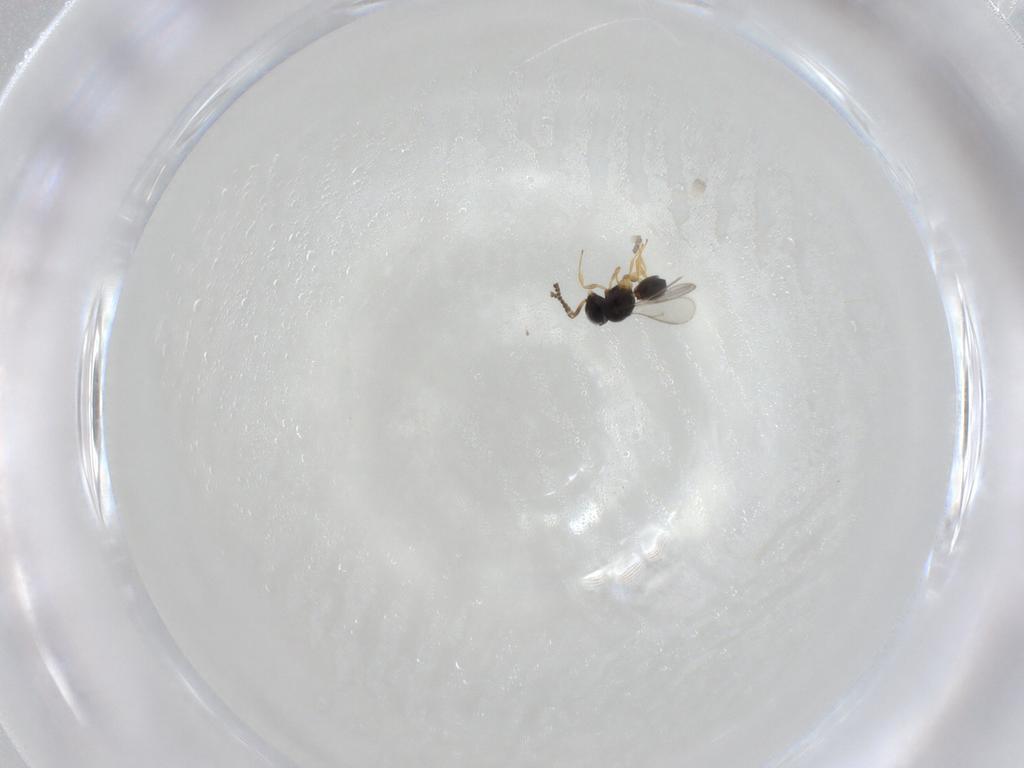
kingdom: Animalia
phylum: Arthropoda
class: Insecta
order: Hymenoptera
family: Scelionidae
